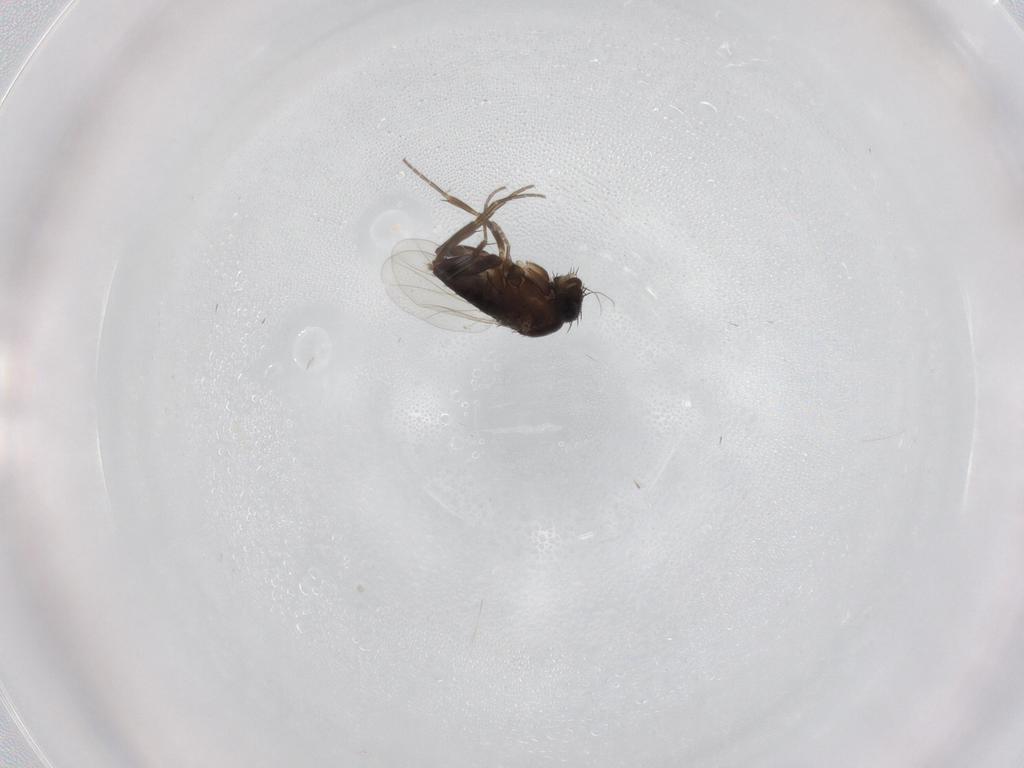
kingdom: Animalia
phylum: Arthropoda
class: Insecta
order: Diptera
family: Phoridae
